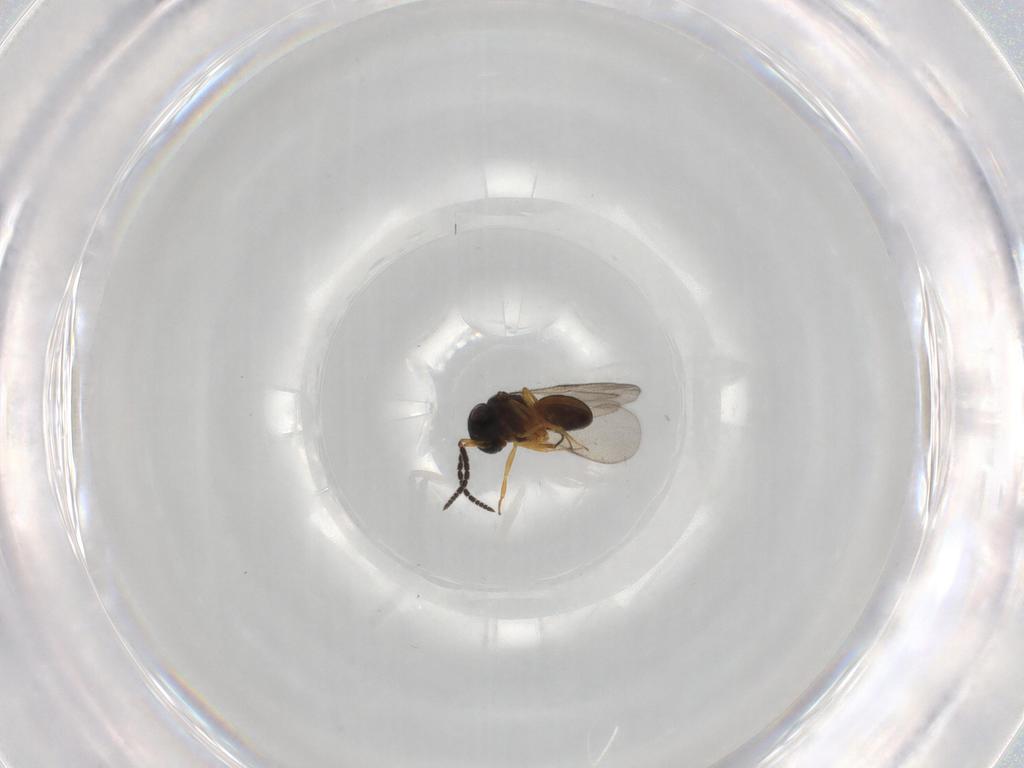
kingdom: Animalia
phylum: Arthropoda
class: Insecta
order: Hymenoptera
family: Scelionidae
